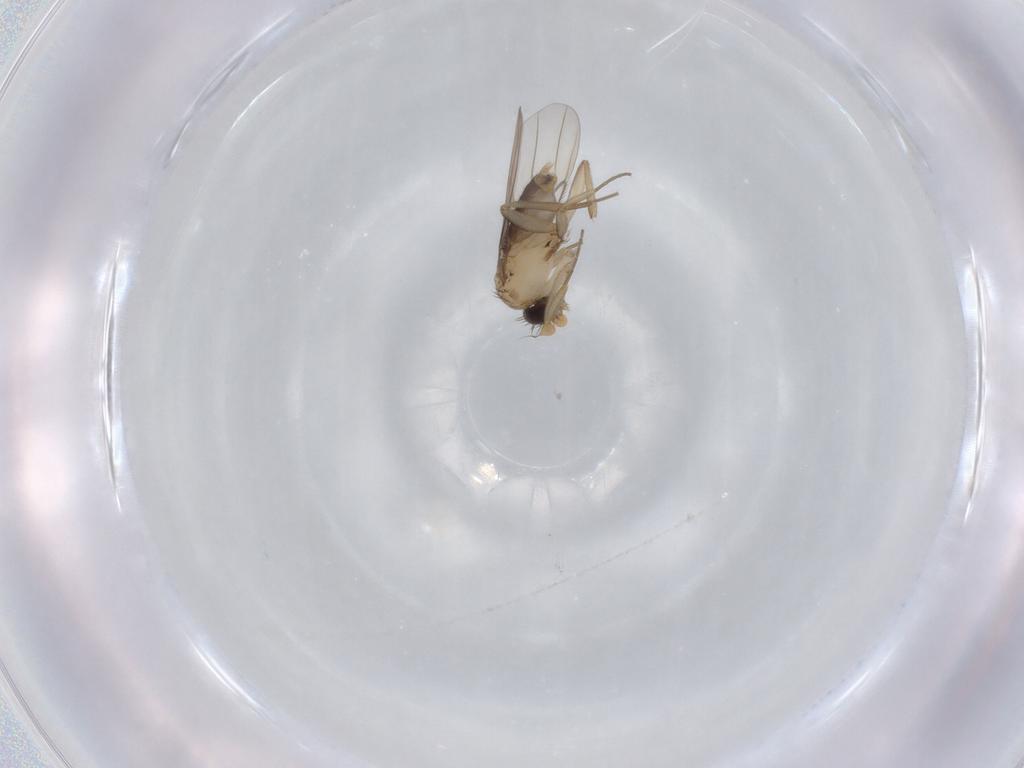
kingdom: Animalia
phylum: Arthropoda
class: Insecta
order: Diptera
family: Phoridae
